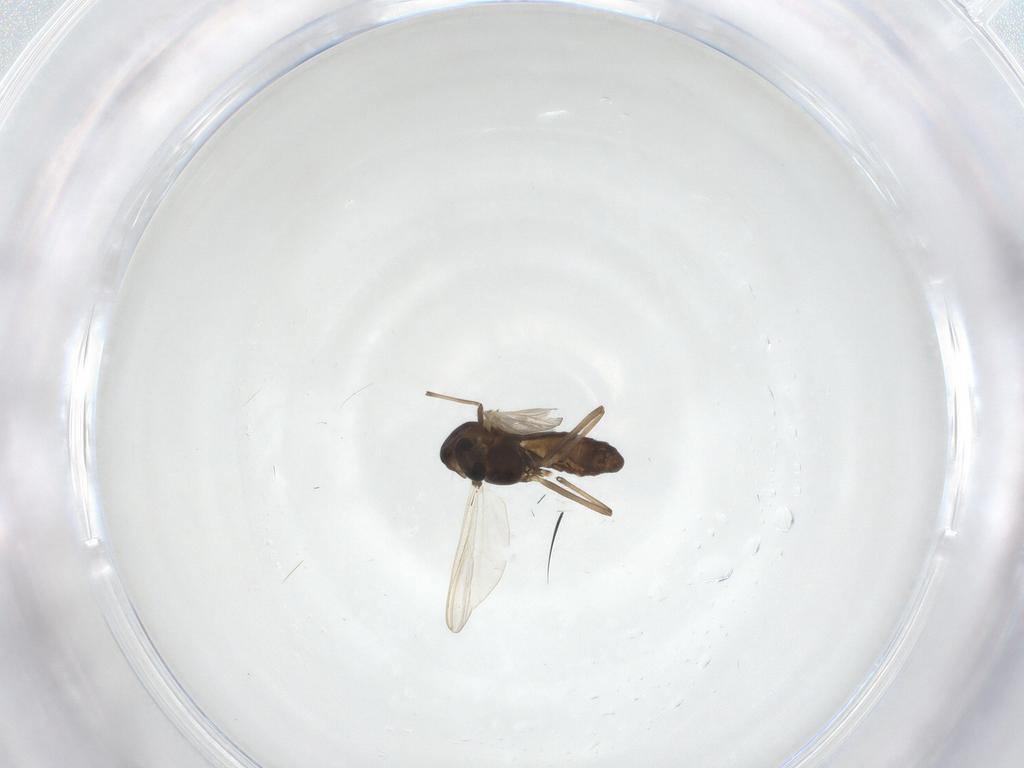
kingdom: Animalia
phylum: Arthropoda
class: Insecta
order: Diptera
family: Chironomidae
